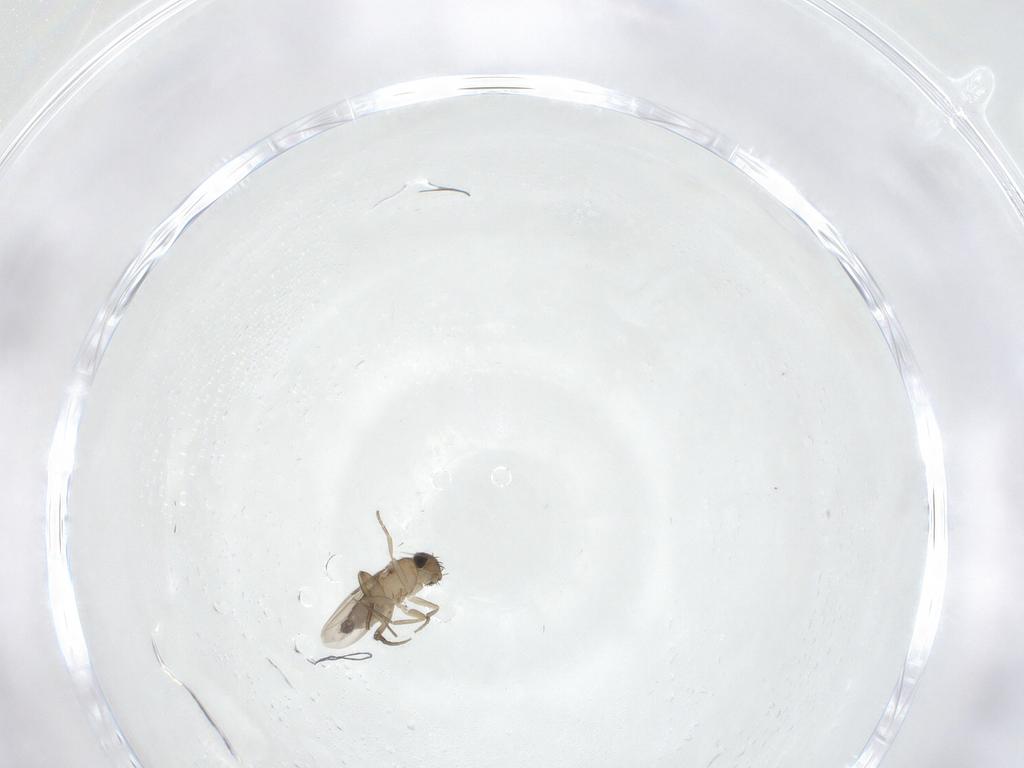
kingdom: Animalia
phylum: Arthropoda
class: Insecta
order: Diptera
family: Phoridae
